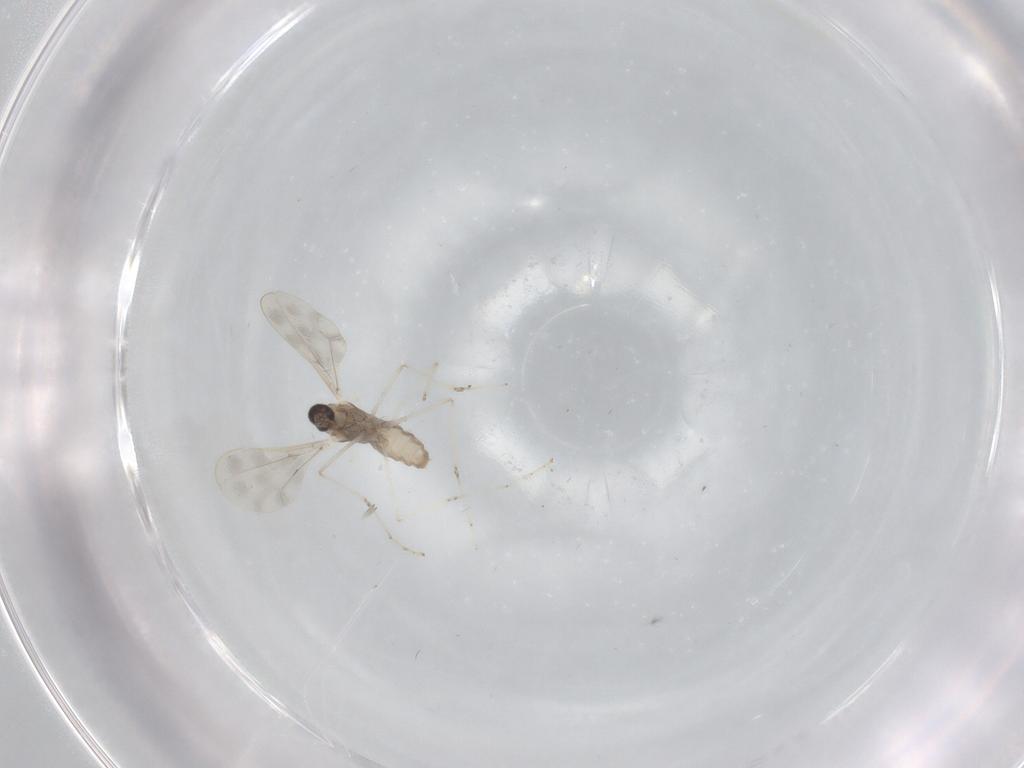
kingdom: Animalia
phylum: Arthropoda
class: Insecta
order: Diptera
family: Cecidomyiidae
